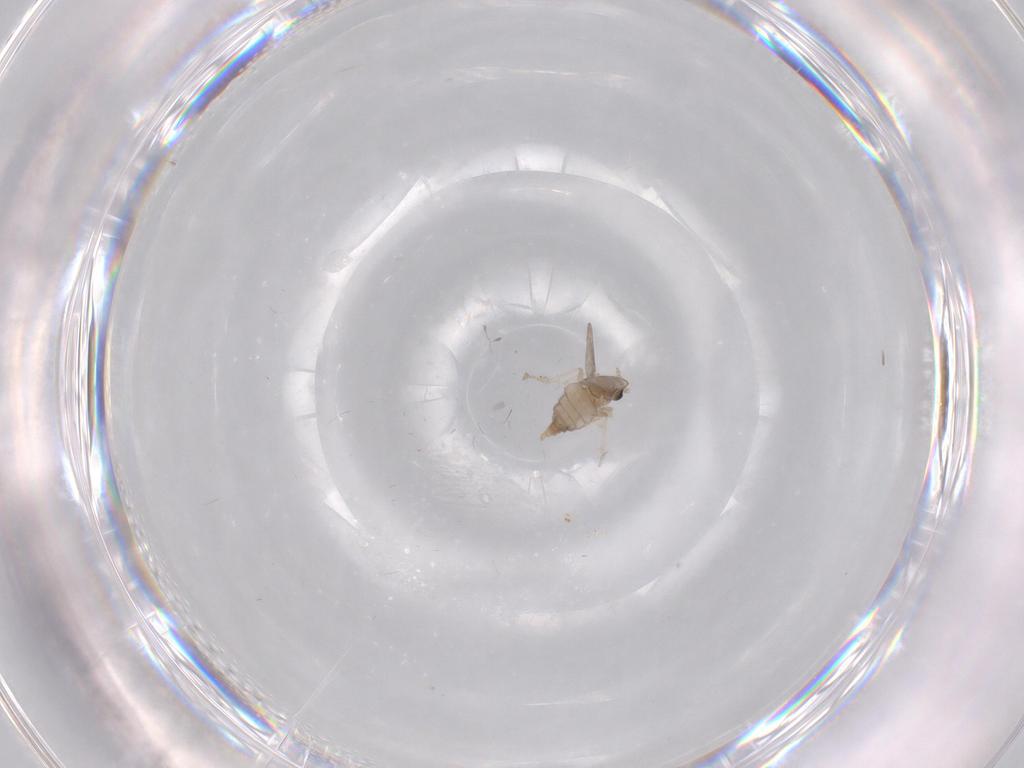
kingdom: Animalia
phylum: Arthropoda
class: Insecta
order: Diptera
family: Cecidomyiidae
